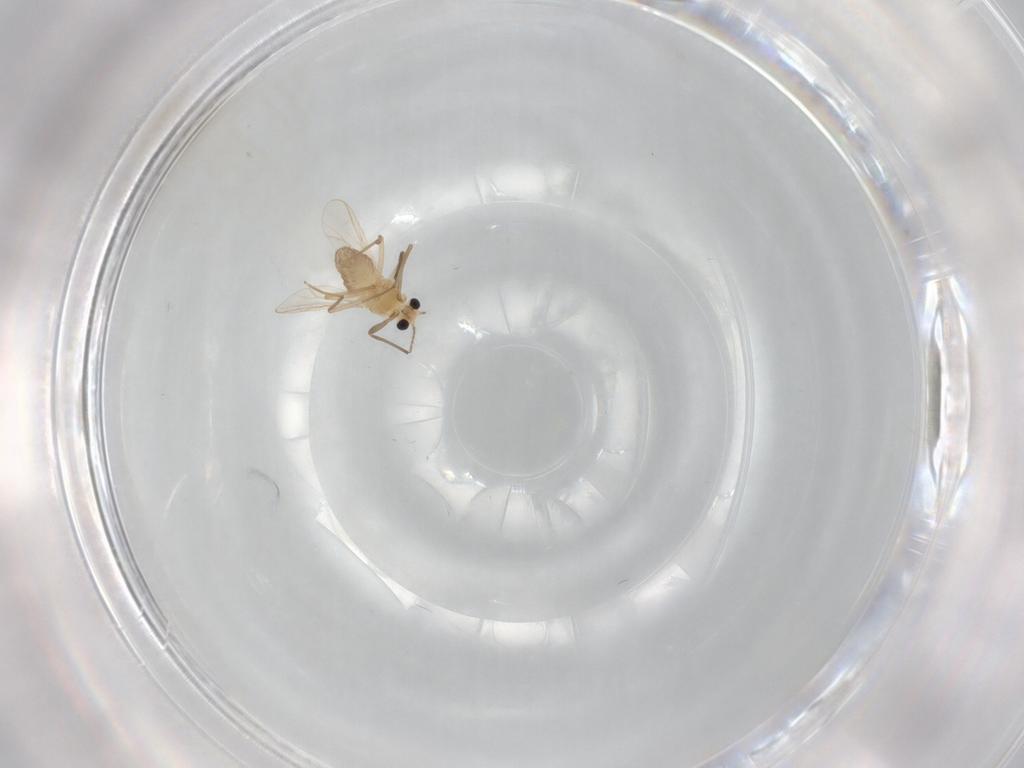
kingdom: Animalia
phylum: Arthropoda
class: Insecta
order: Diptera
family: Chironomidae
